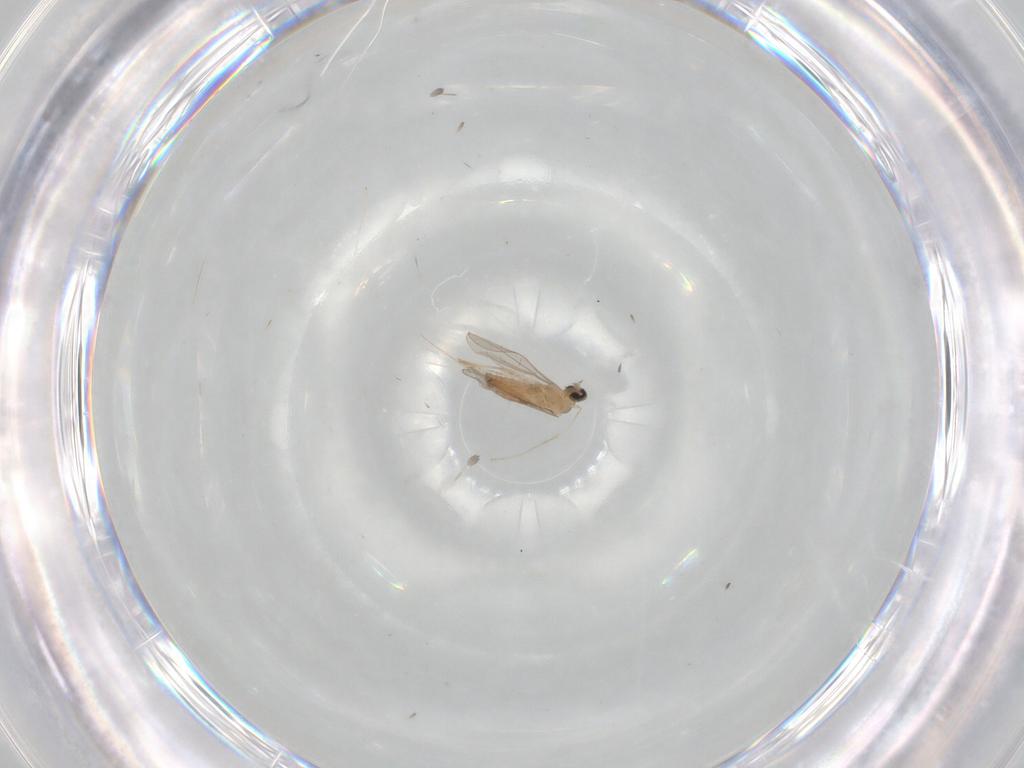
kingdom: Animalia
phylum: Arthropoda
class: Insecta
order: Diptera
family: Cecidomyiidae
